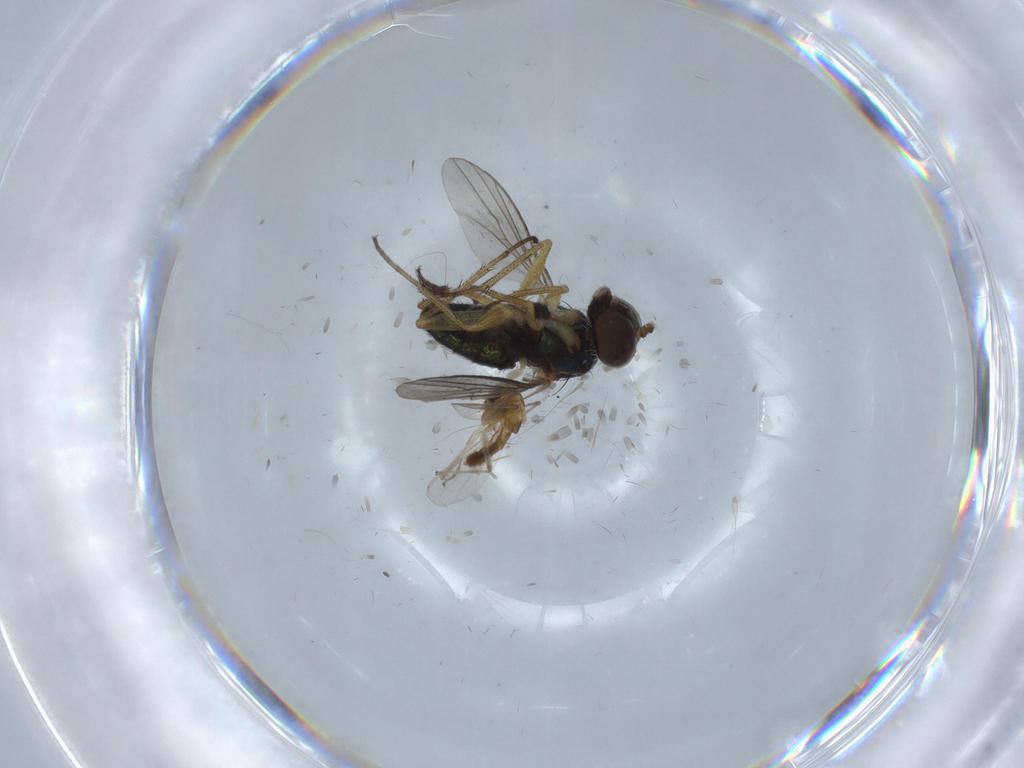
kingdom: Animalia
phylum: Arthropoda
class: Insecta
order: Diptera
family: Chironomidae
